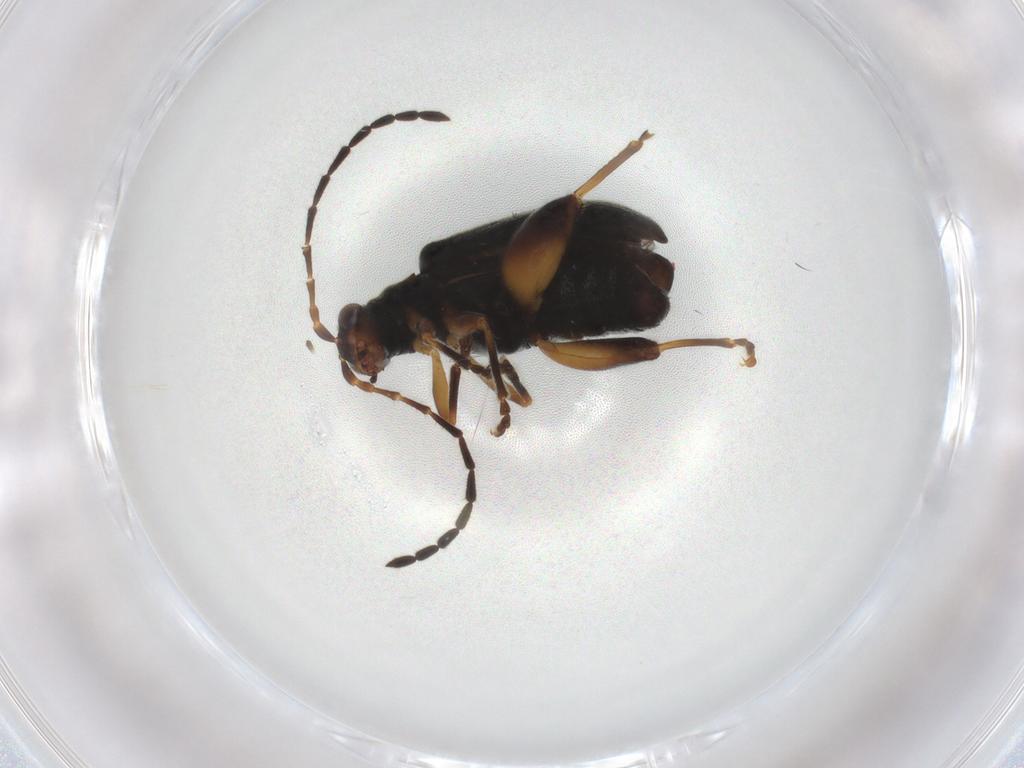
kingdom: Animalia
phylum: Arthropoda
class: Insecta
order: Coleoptera
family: Chrysomelidae
